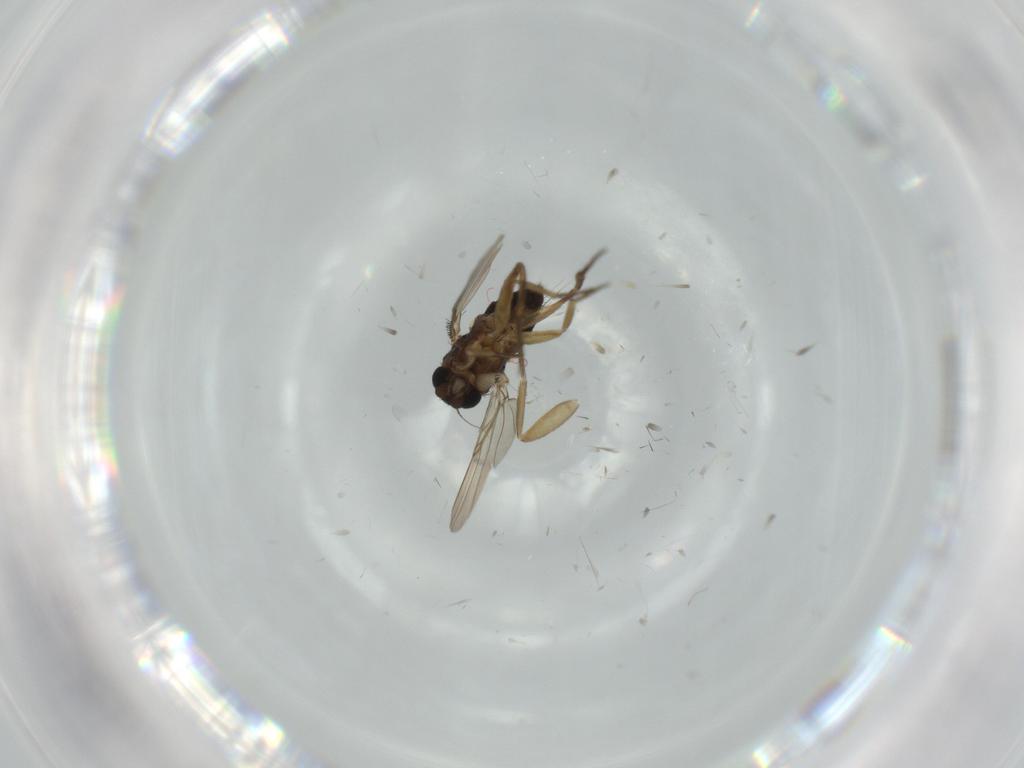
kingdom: Animalia
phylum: Arthropoda
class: Insecta
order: Diptera
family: Phoridae
